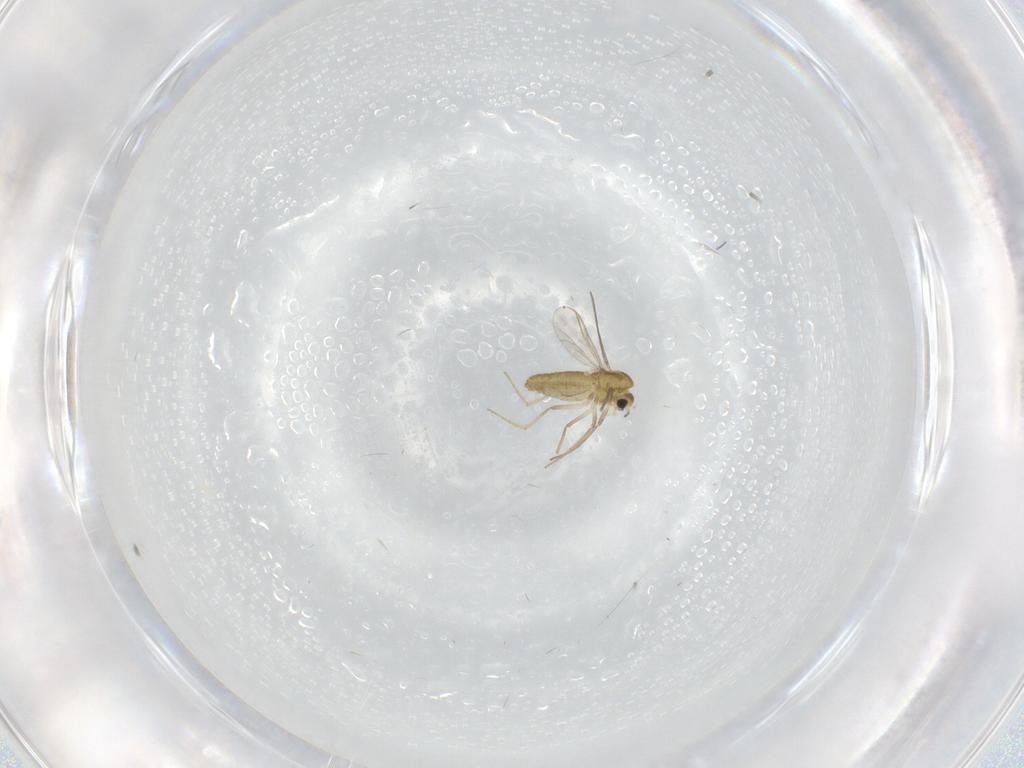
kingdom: Animalia
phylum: Arthropoda
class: Insecta
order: Diptera
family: Chironomidae
